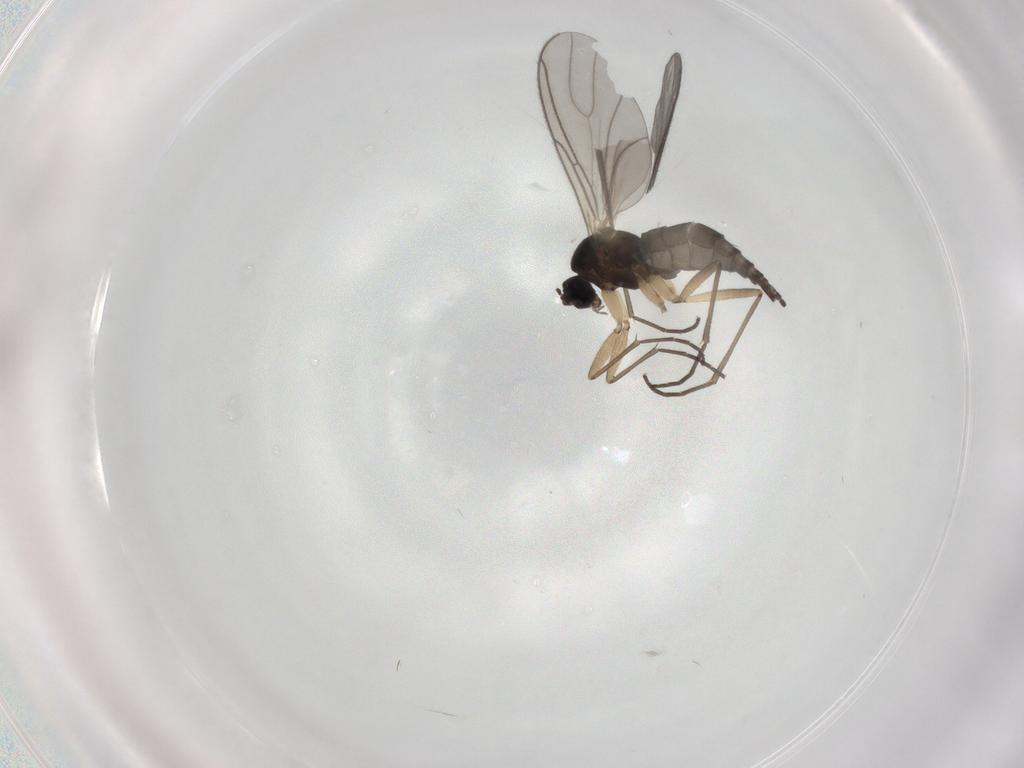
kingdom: Animalia
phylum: Arthropoda
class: Insecta
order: Diptera
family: Sciaridae
